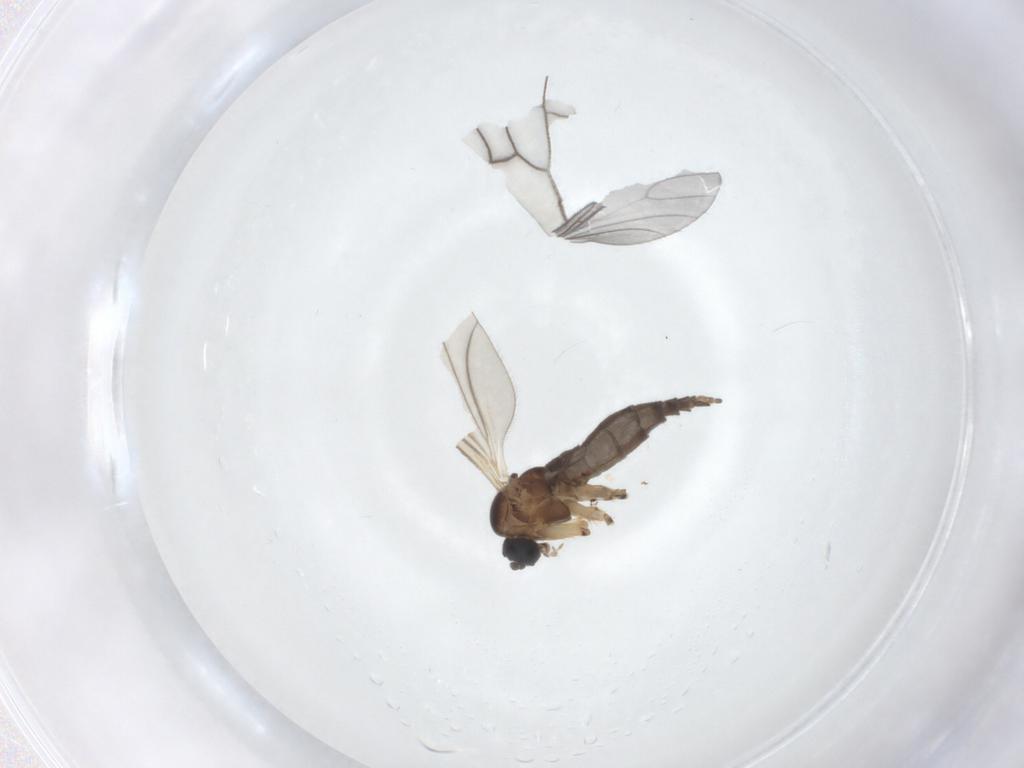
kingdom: Animalia
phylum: Arthropoda
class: Insecta
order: Diptera
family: Sciaridae
